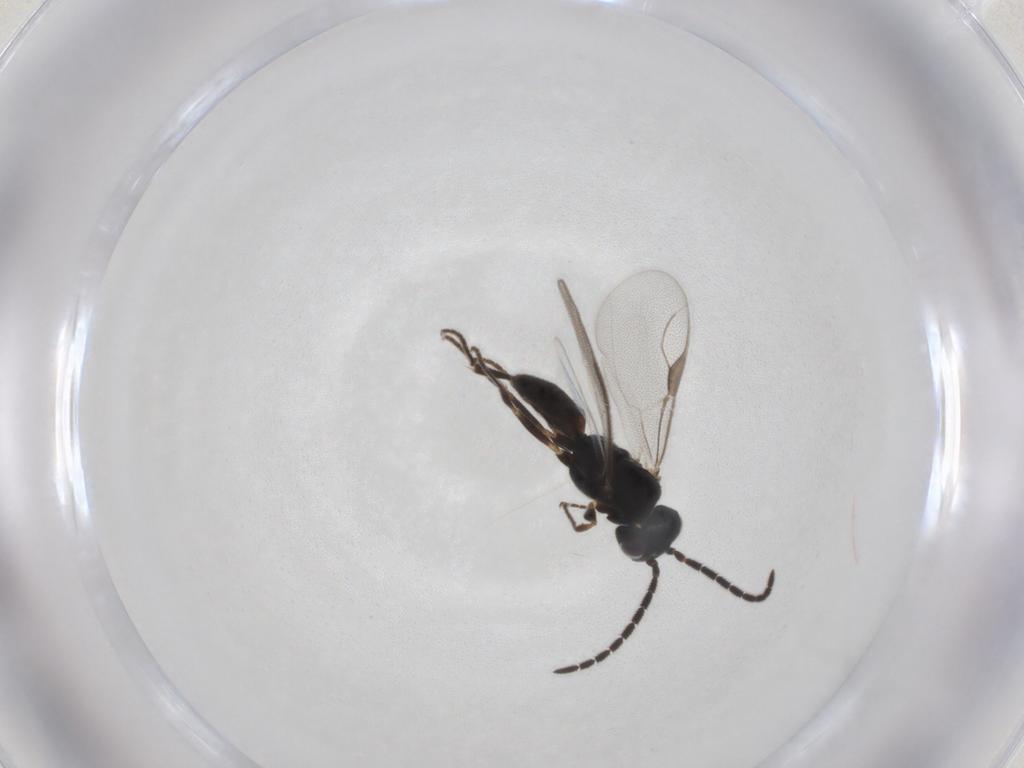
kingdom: Animalia
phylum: Arthropoda
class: Insecta
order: Hymenoptera
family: Dryinidae
